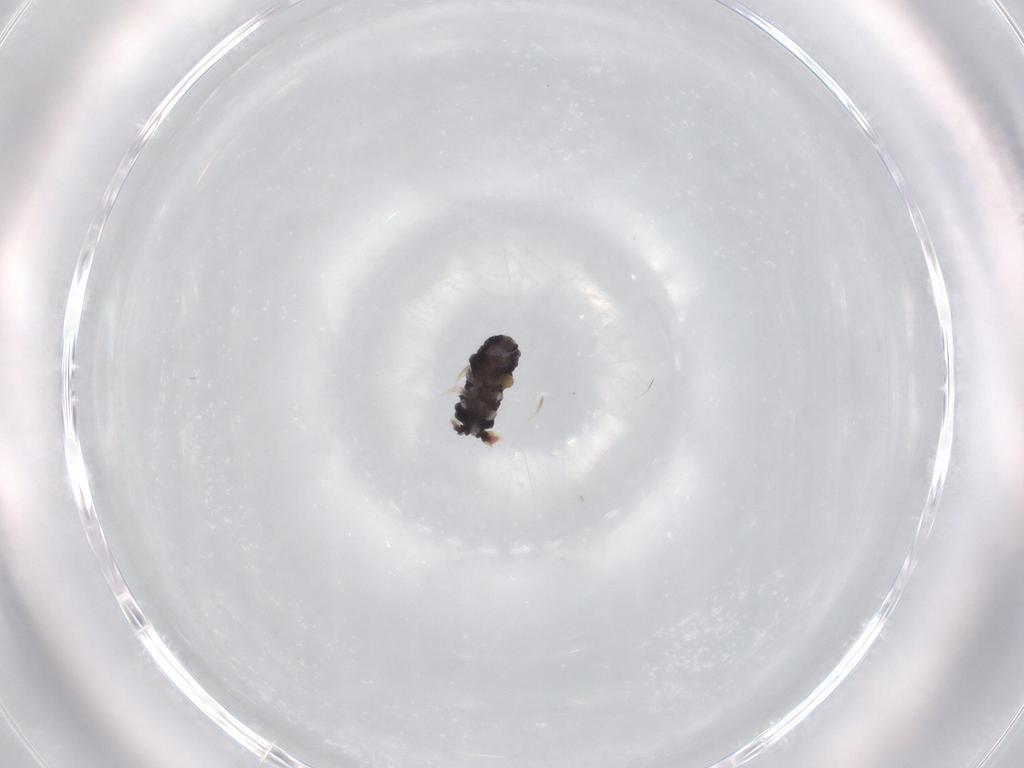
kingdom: Animalia
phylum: Arthropoda
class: Collembola
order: Poduromorpha
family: Neanuridae
